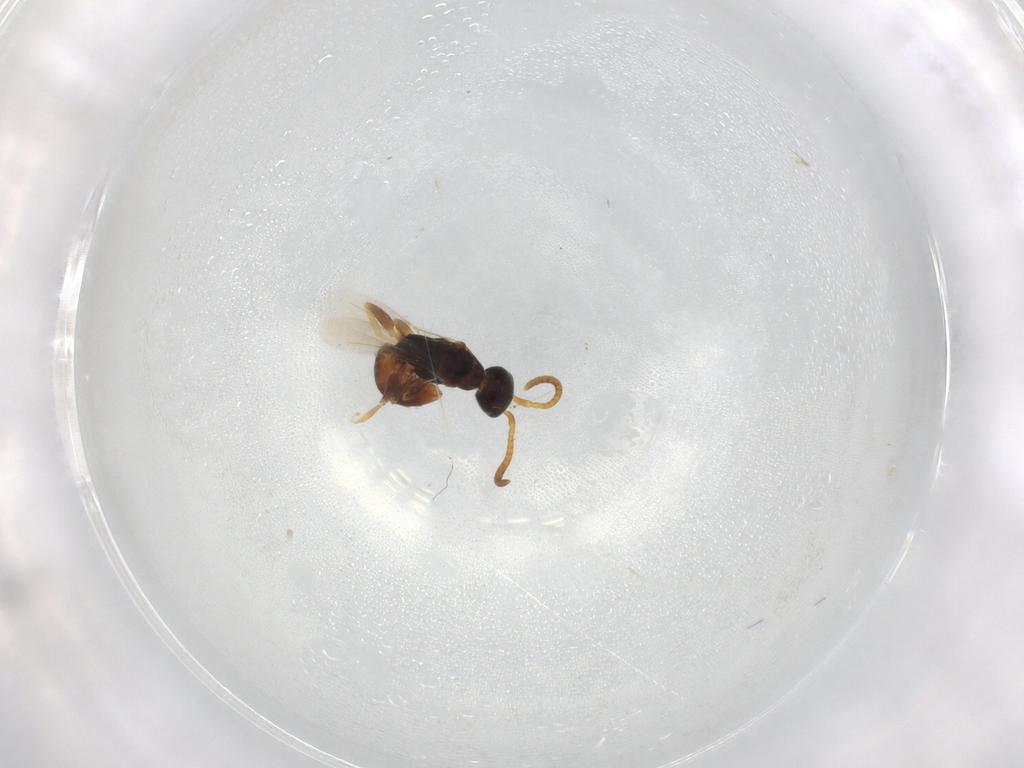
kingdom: Animalia
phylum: Arthropoda
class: Insecta
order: Hymenoptera
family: Bethylidae
